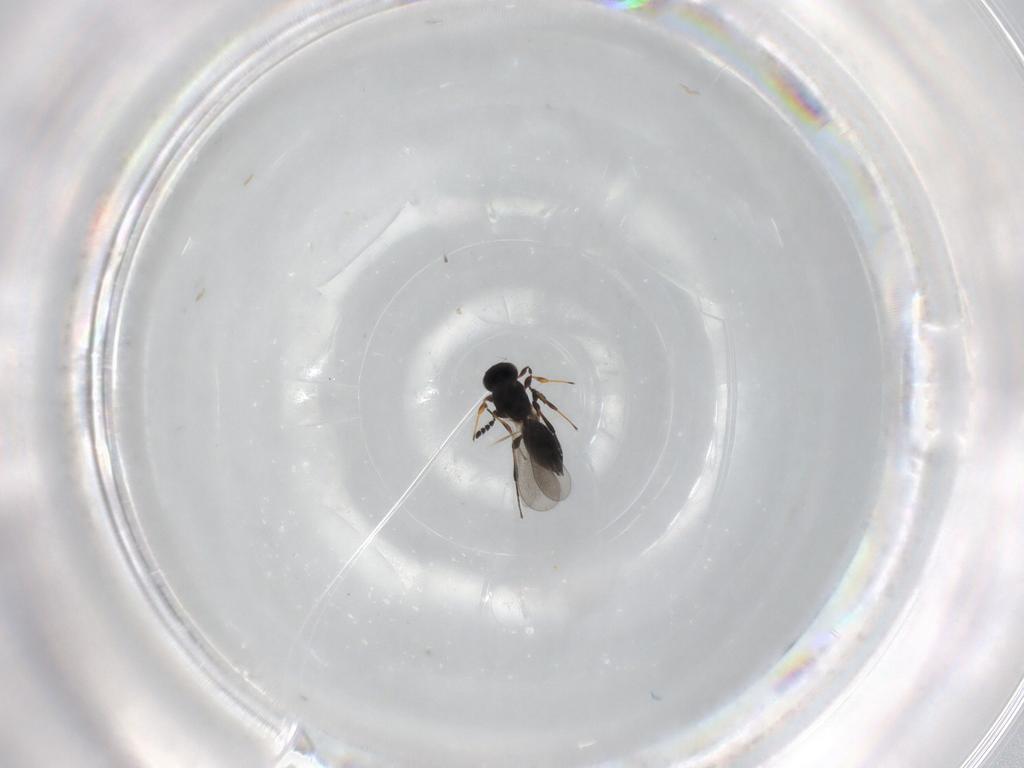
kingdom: Animalia
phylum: Arthropoda
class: Insecta
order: Hymenoptera
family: Platygastridae
